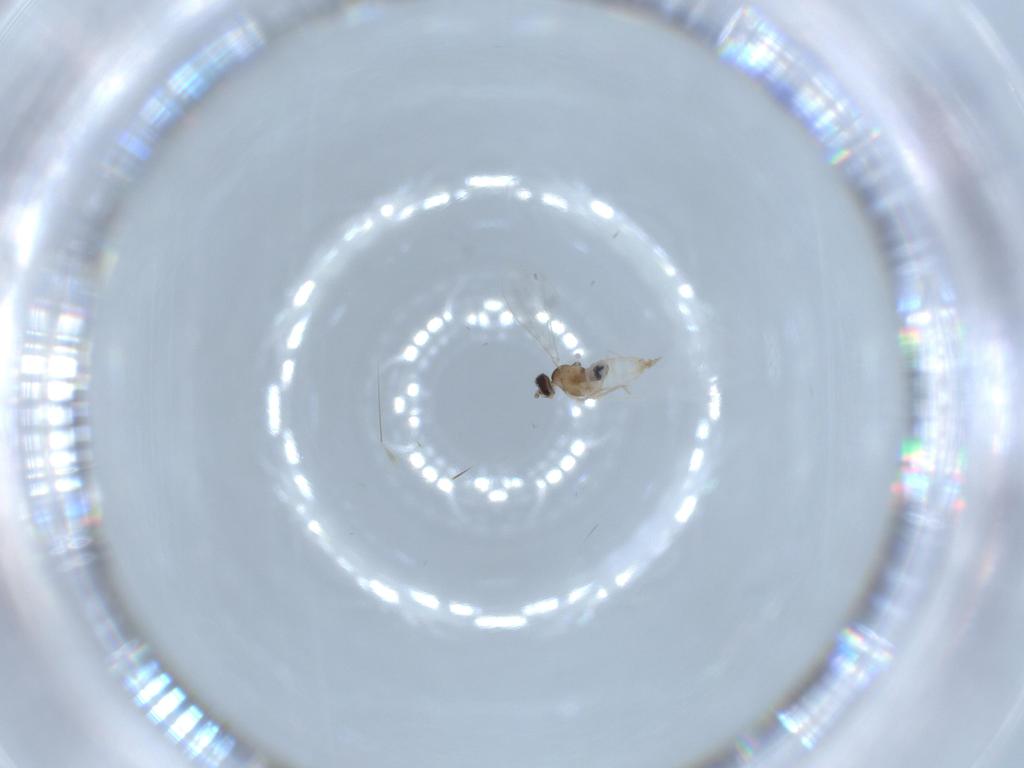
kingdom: Animalia
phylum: Arthropoda
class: Insecta
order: Diptera
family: Cecidomyiidae
